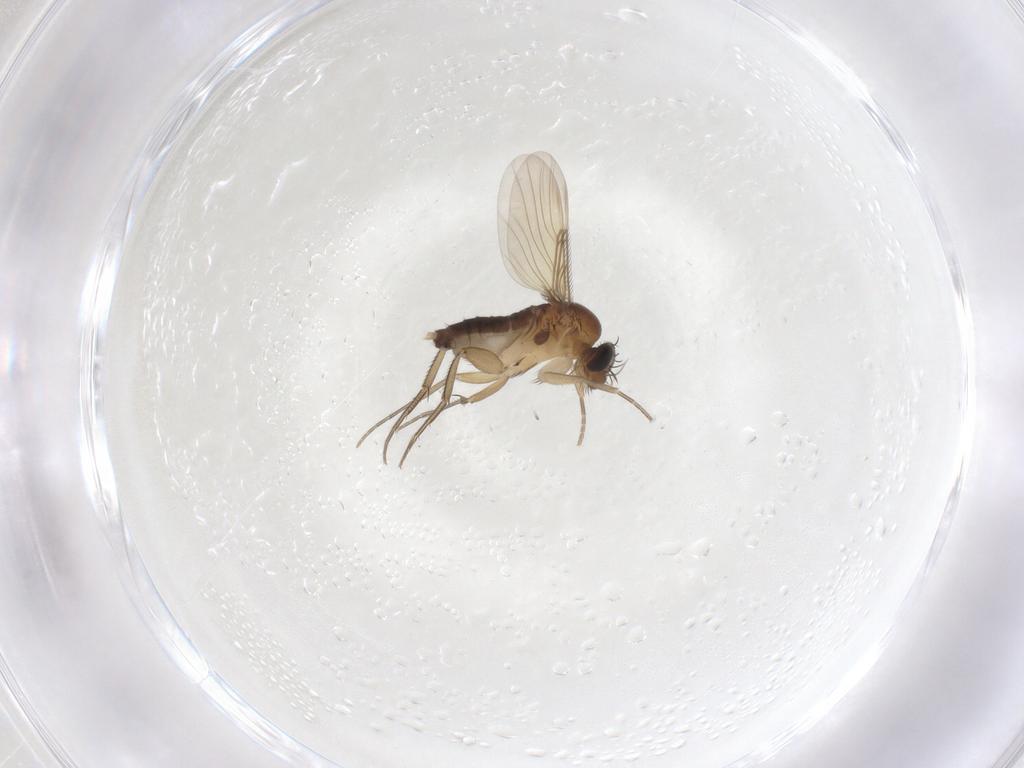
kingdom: Animalia
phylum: Arthropoda
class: Insecta
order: Diptera
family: Phoridae
